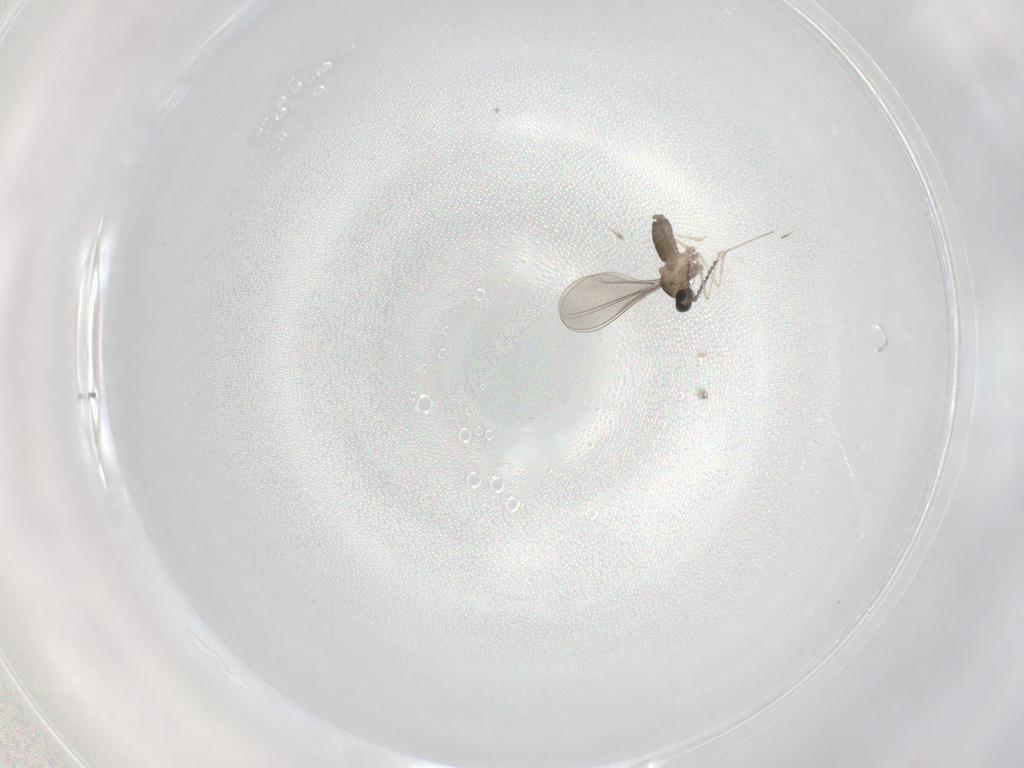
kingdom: Animalia
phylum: Arthropoda
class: Insecta
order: Diptera
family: Cecidomyiidae
